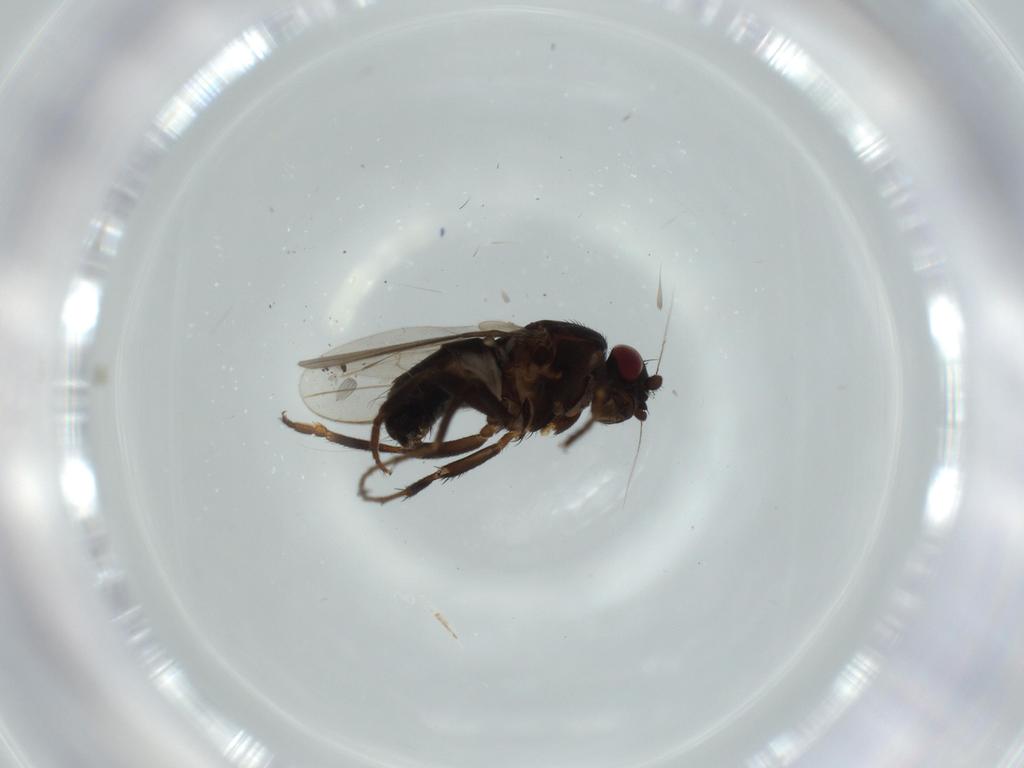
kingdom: Animalia
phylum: Arthropoda
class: Insecta
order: Diptera
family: Sphaeroceridae
